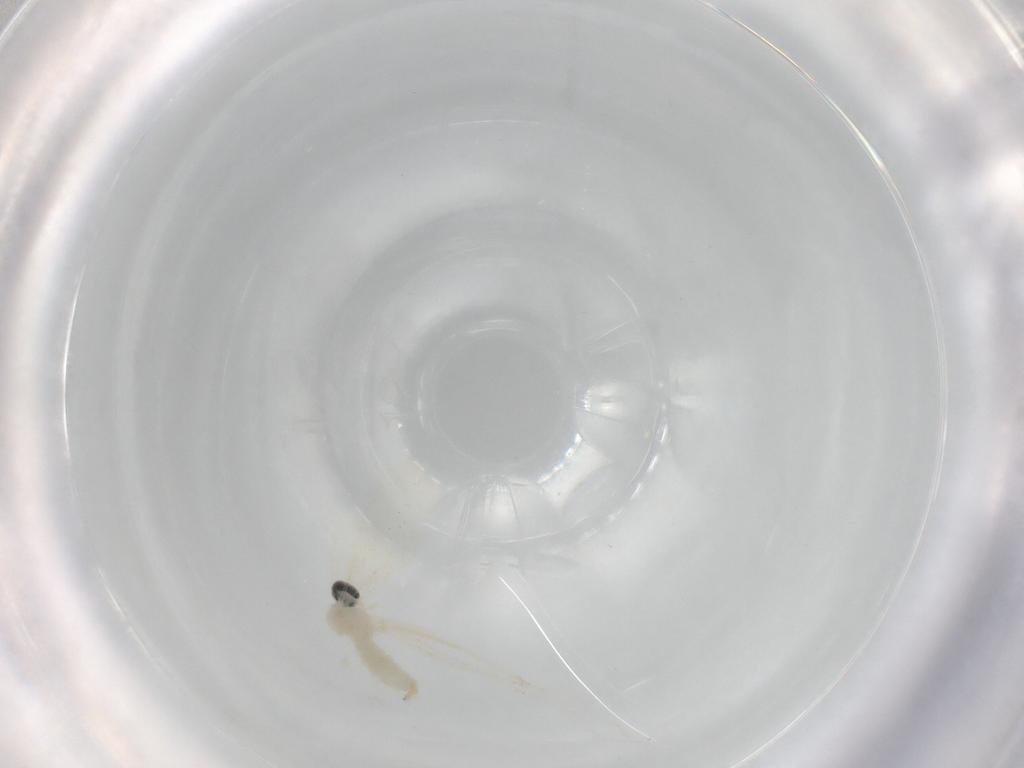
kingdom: Animalia
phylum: Arthropoda
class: Insecta
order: Diptera
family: Cecidomyiidae
